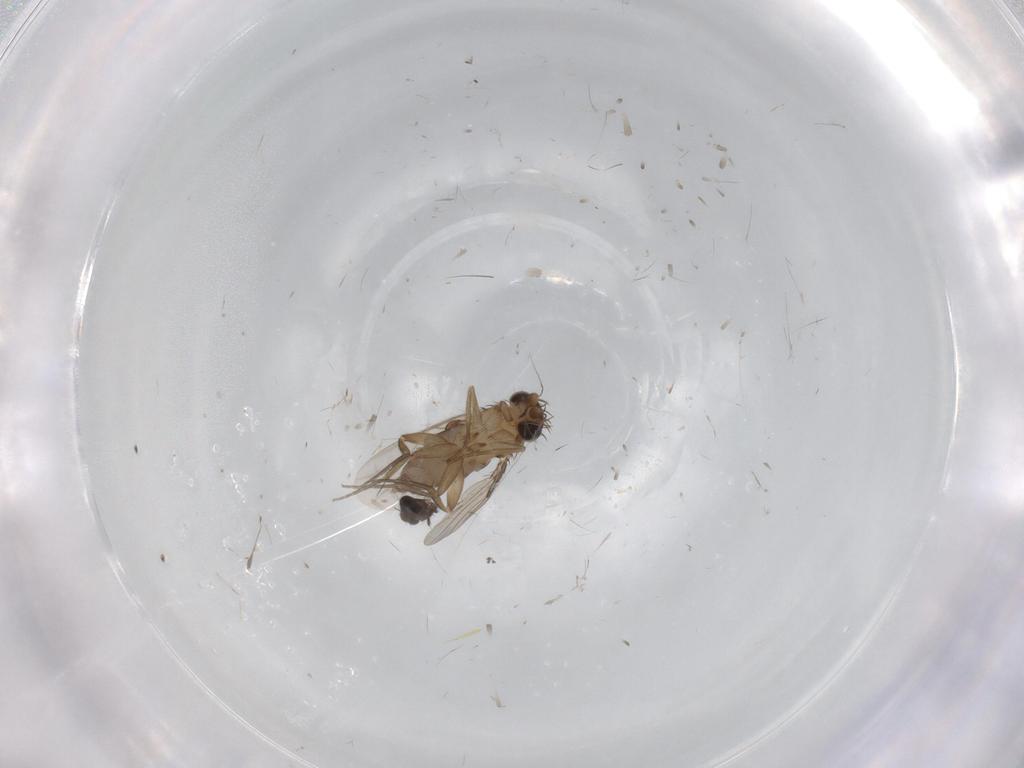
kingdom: Animalia
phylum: Arthropoda
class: Insecta
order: Diptera
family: Phoridae
